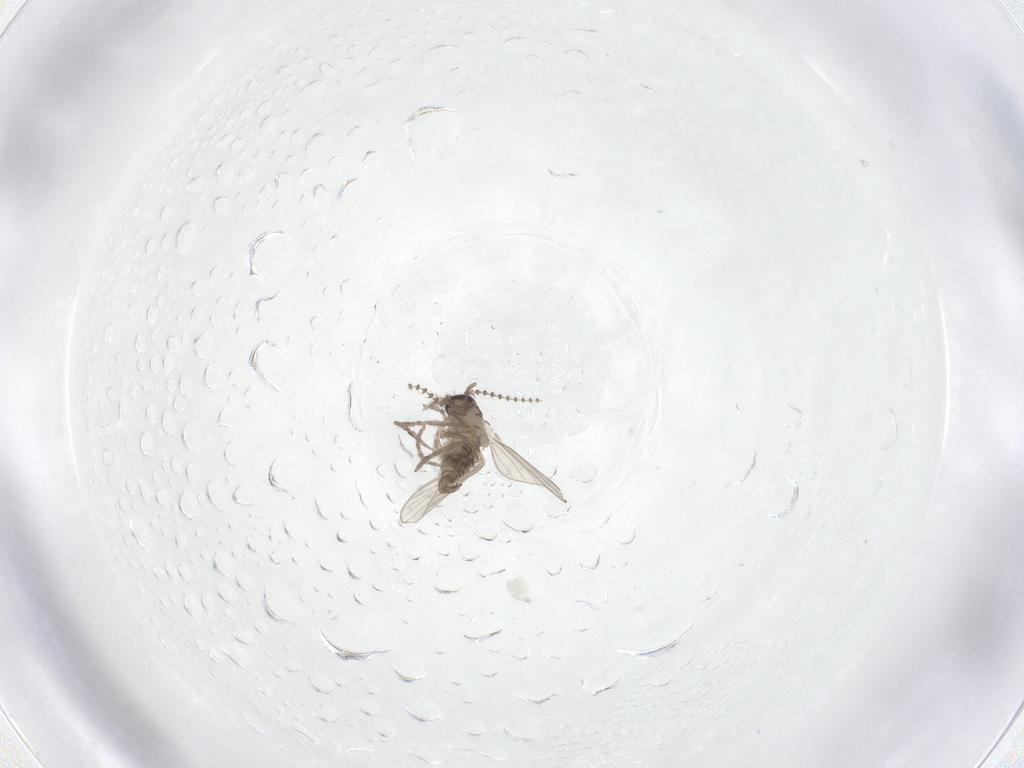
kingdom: Animalia
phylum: Arthropoda
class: Insecta
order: Diptera
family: Psychodidae
